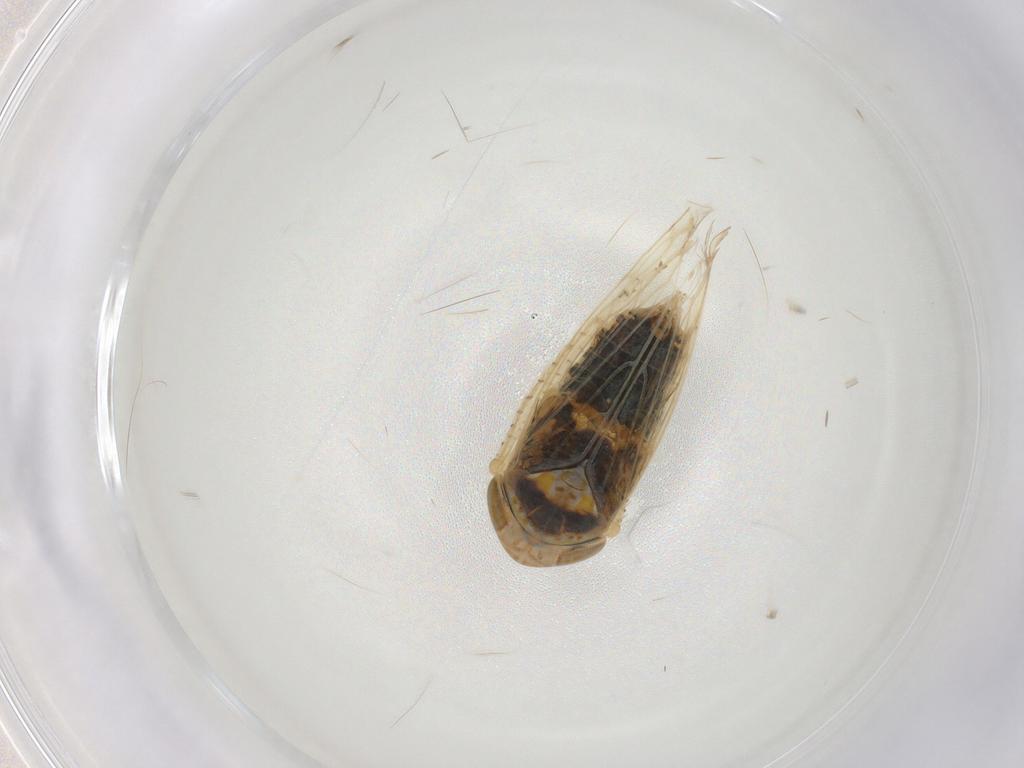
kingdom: Animalia
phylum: Arthropoda
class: Insecta
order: Hemiptera
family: Cicadellidae
